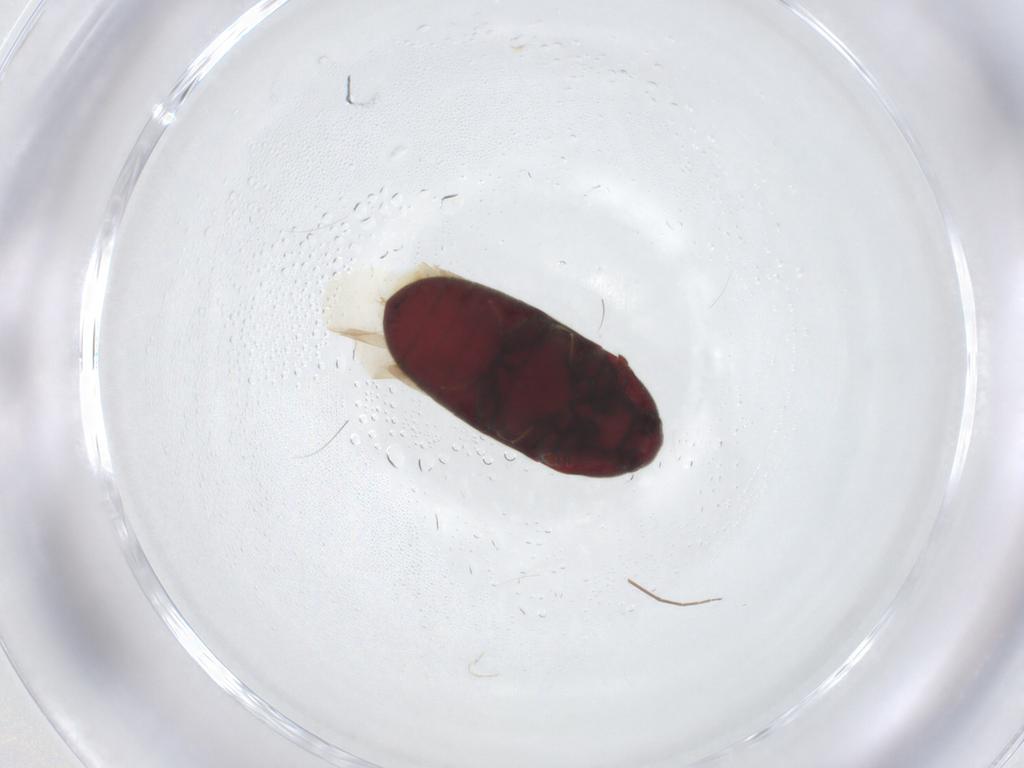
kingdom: Animalia
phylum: Arthropoda
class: Insecta
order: Coleoptera
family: Throscidae
